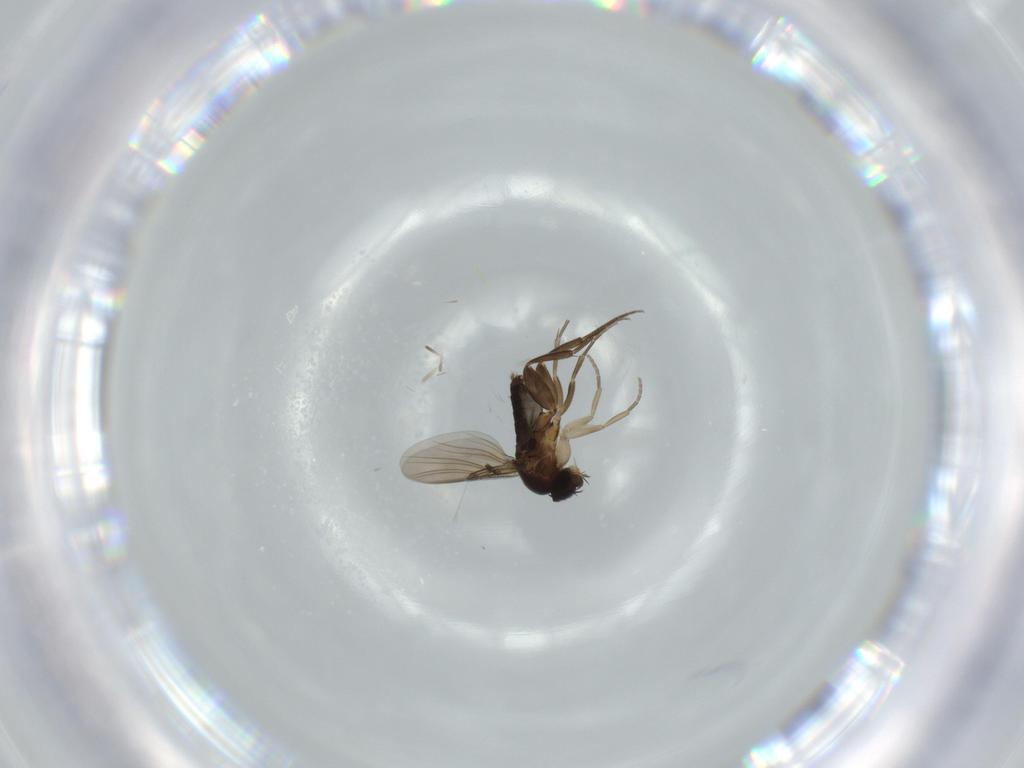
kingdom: Animalia
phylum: Arthropoda
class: Insecta
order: Diptera
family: Phoridae
